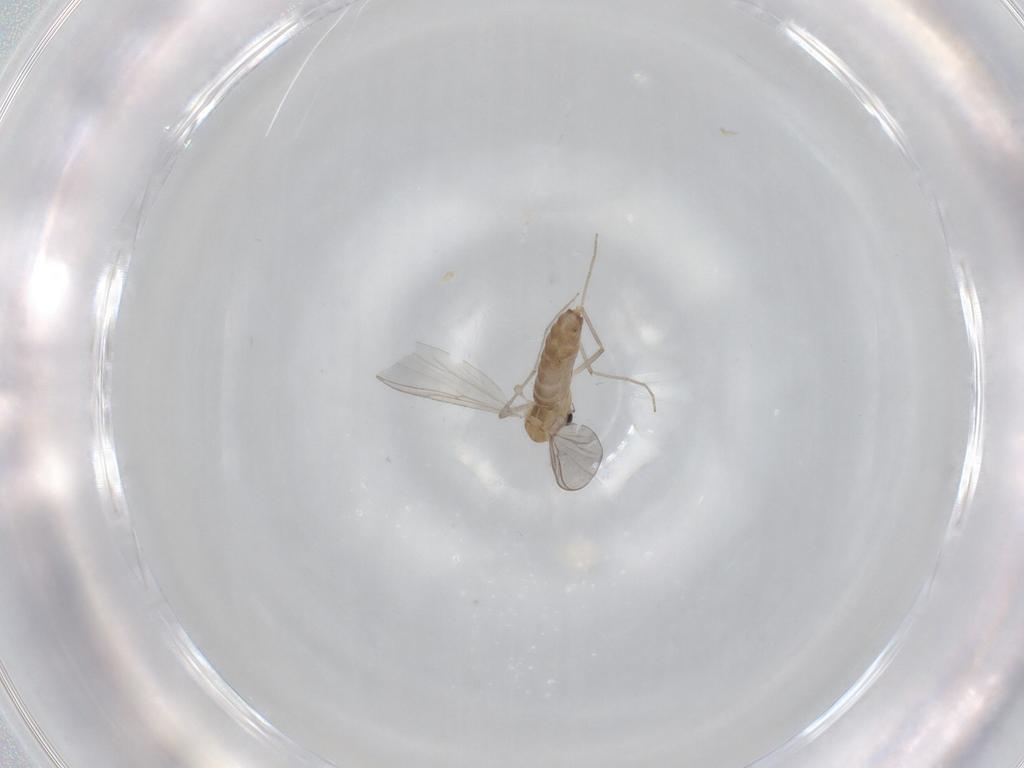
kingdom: Animalia
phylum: Arthropoda
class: Insecta
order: Diptera
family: Chironomidae
